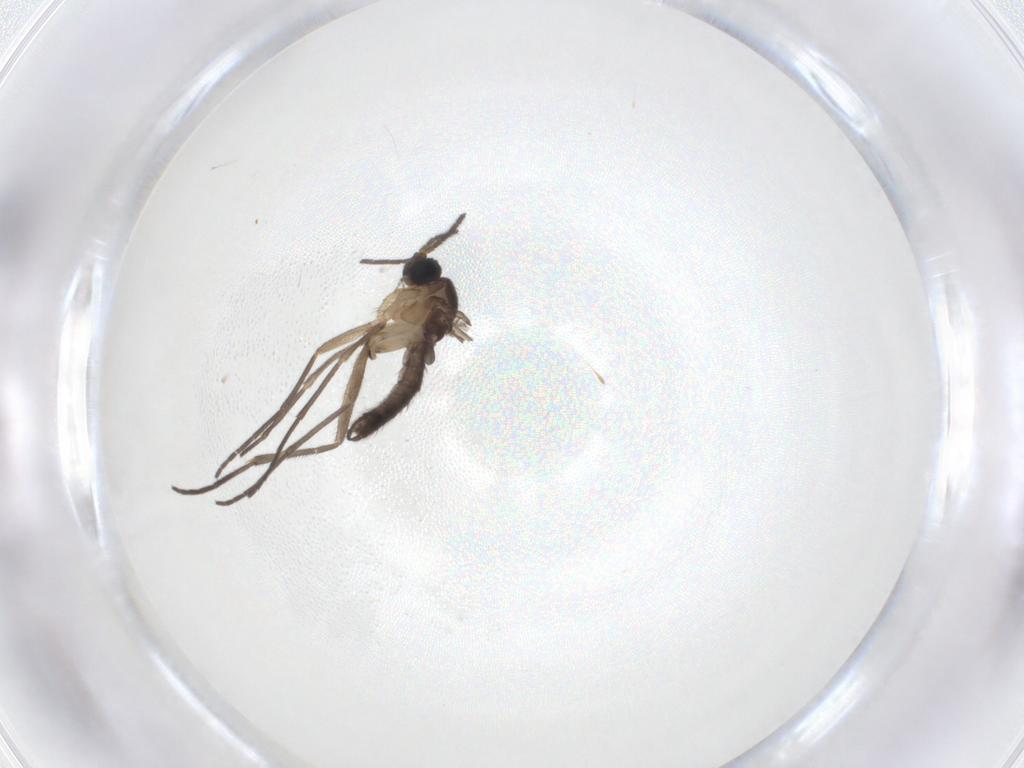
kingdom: Animalia
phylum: Arthropoda
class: Insecta
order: Diptera
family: Sciaridae
